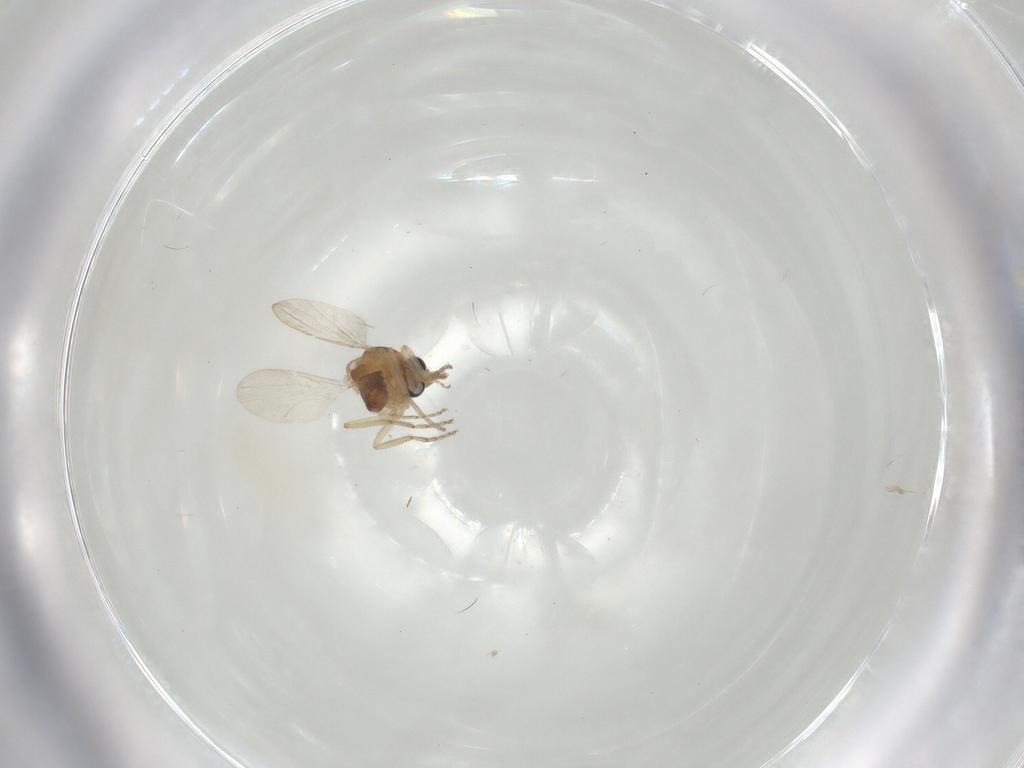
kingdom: Animalia
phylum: Arthropoda
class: Insecta
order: Diptera
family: Ceratopogonidae
